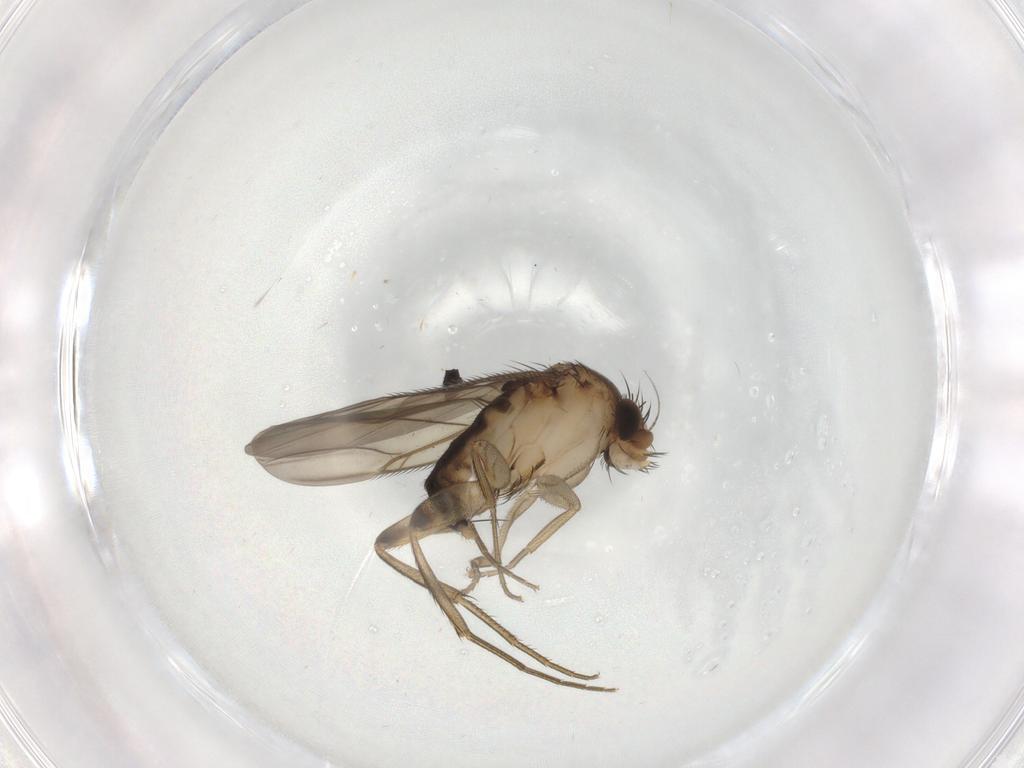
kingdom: Animalia
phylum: Arthropoda
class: Insecta
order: Diptera
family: Phoridae
